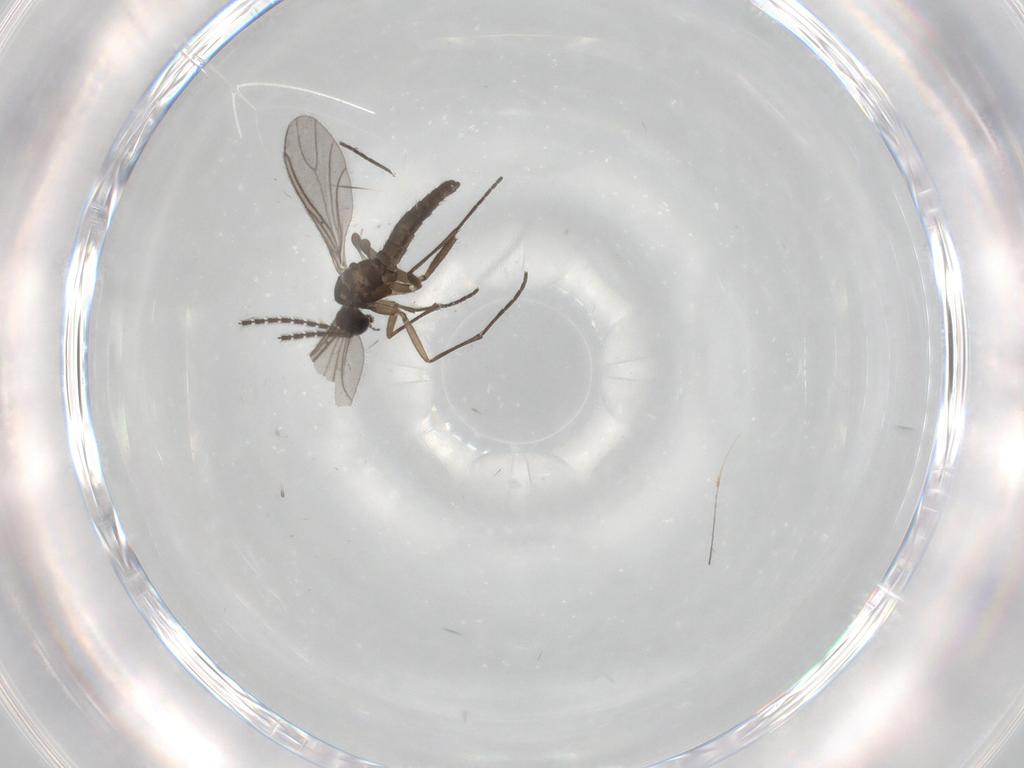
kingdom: Animalia
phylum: Arthropoda
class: Insecta
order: Diptera
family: Sciaridae
